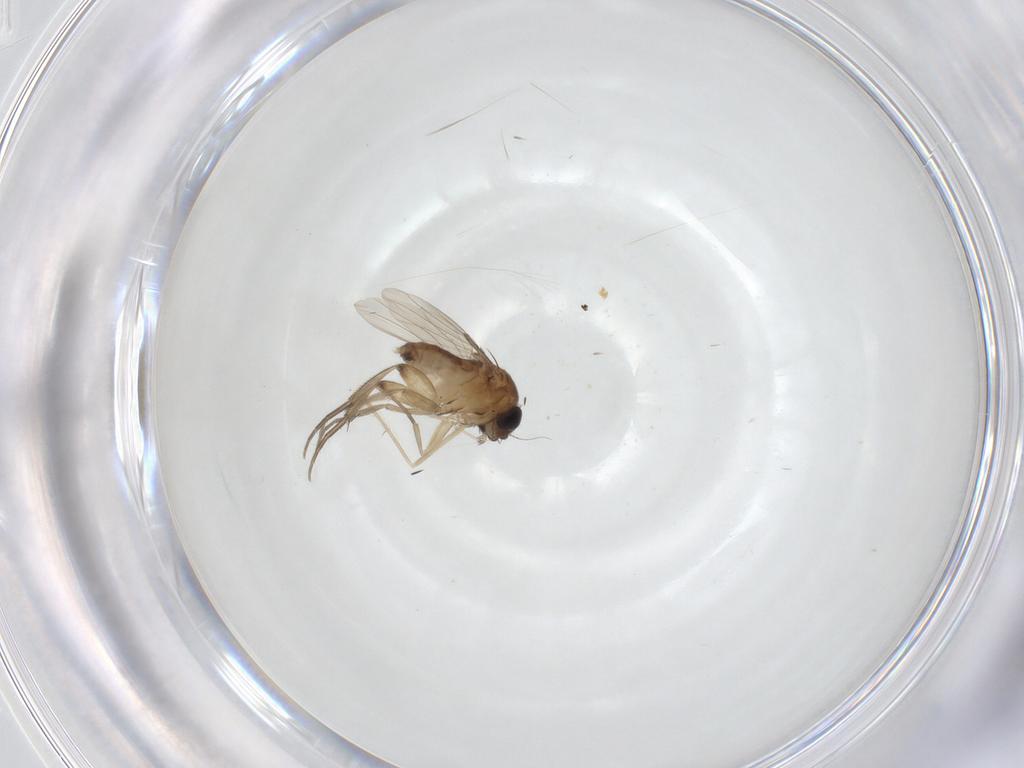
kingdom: Animalia
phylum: Arthropoda
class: Insecta
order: Diptera
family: Phoridae
